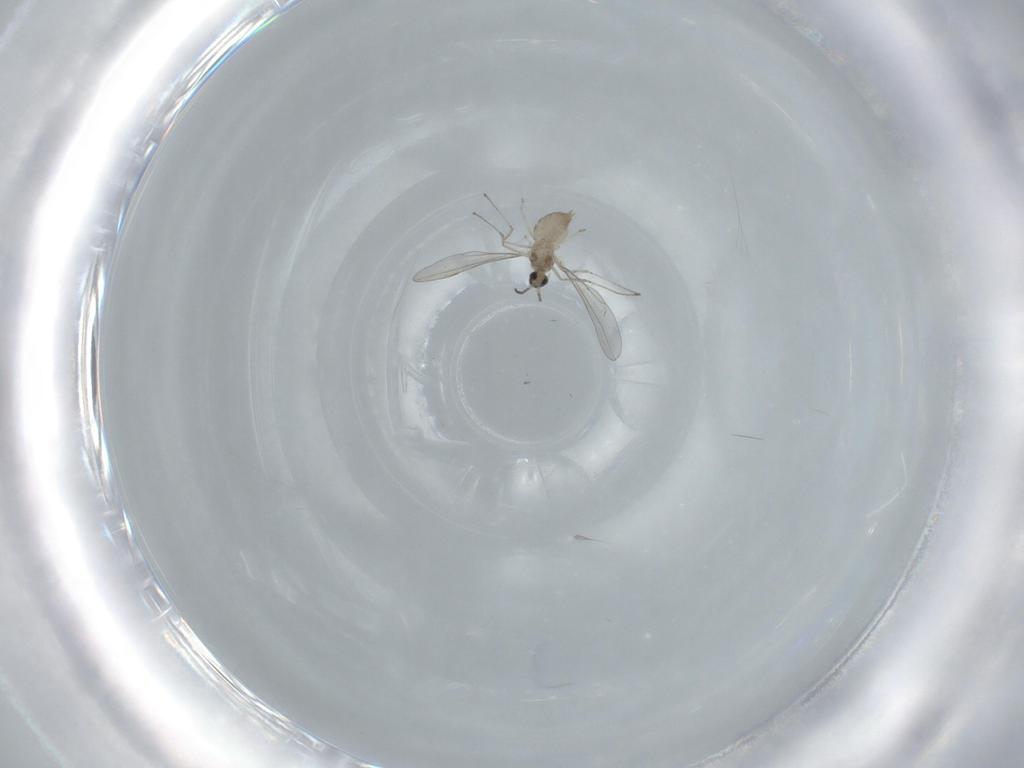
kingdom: Animalia
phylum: Arthropoda
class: Insecta
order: Diptera
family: Cecidomyiidae
